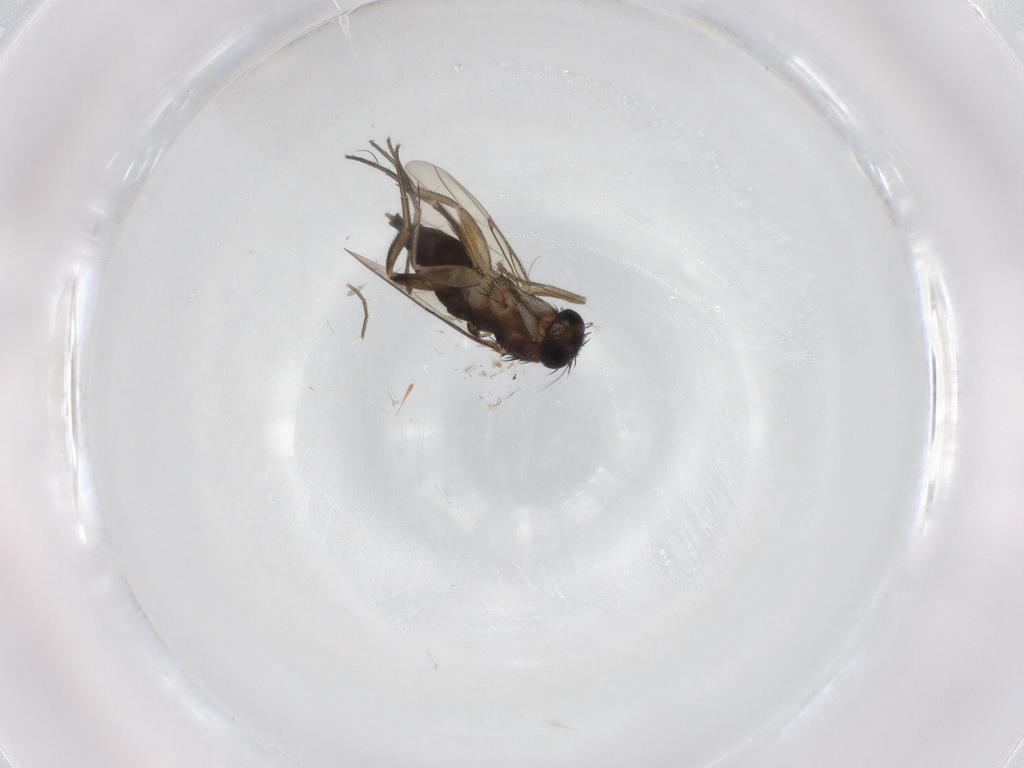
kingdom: Animalia
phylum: Arthropoda
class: Insecta
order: Diptera
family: Phoridae
